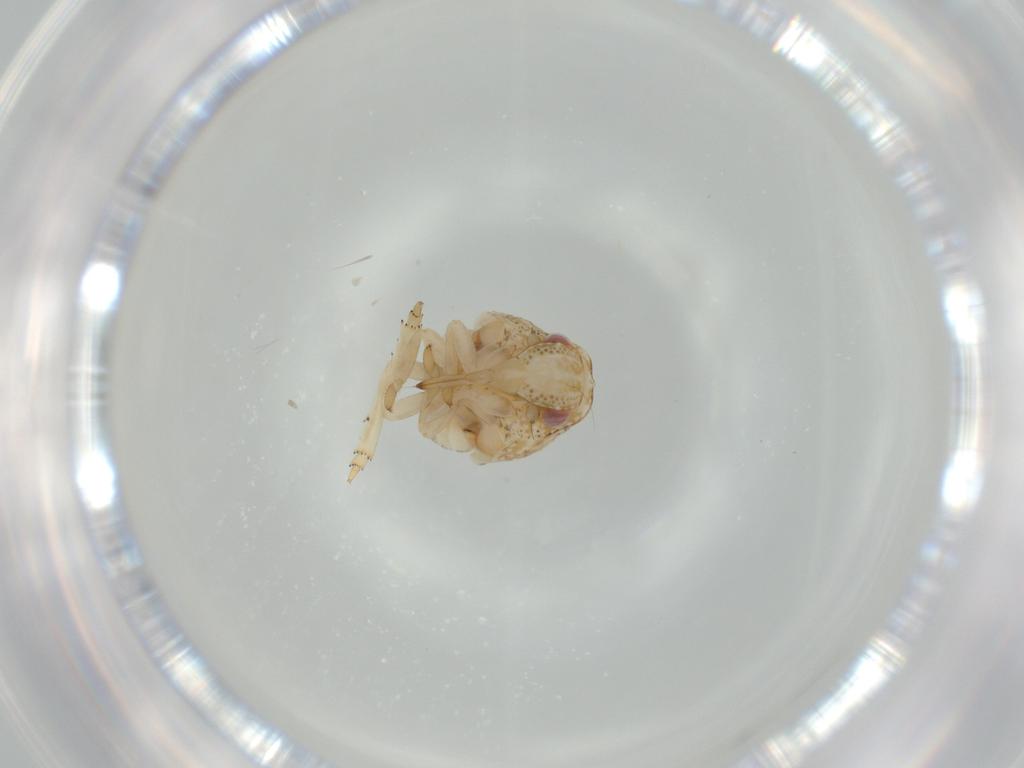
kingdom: Animalia
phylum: Arthropoda
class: Insecta
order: Hemiptera
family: Acanaloniidae
